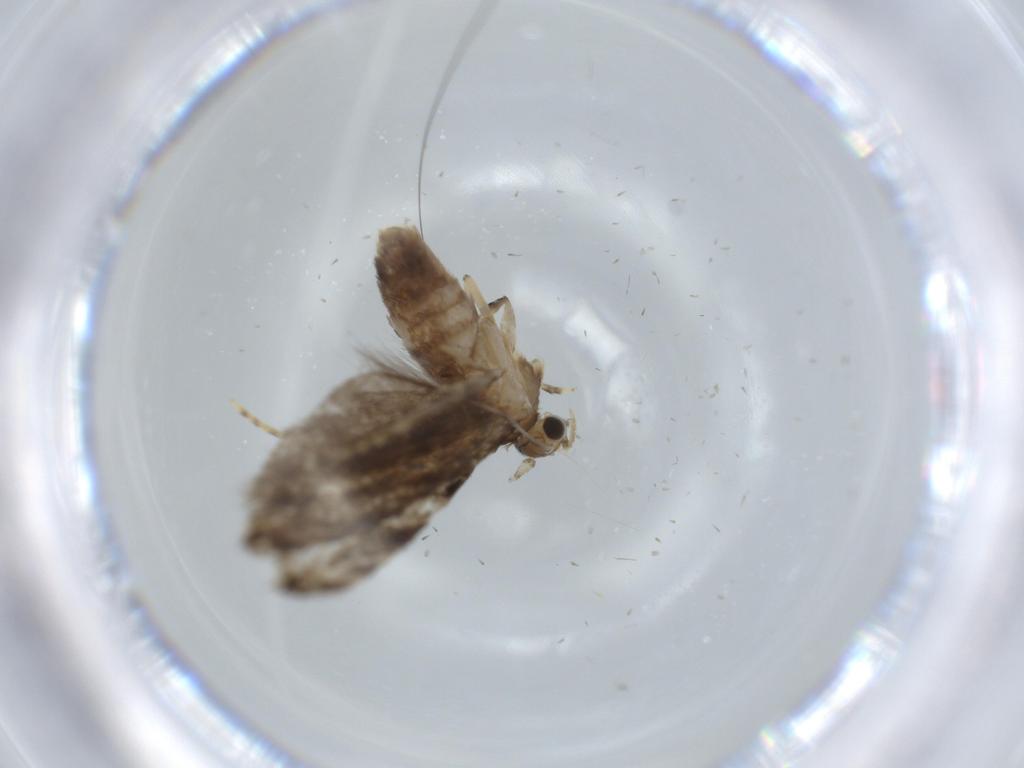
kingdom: Animalia
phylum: Arthropoda
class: Insecta
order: Lepidoptera
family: Tineidae
